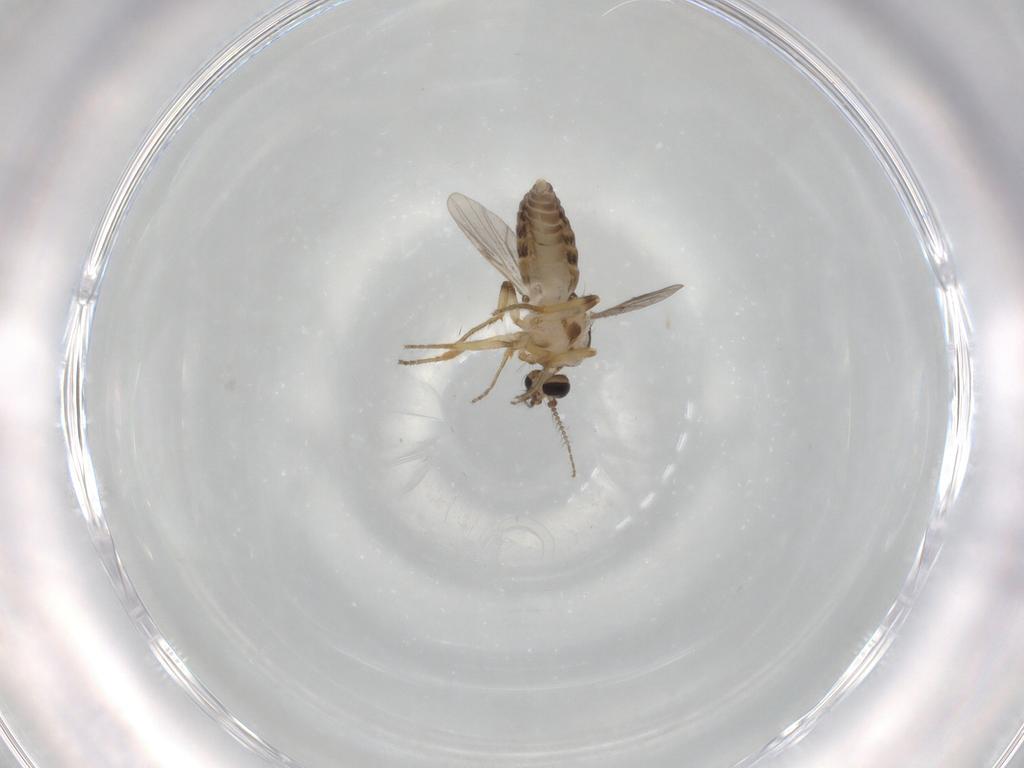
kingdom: Animalia
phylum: Arthropoda
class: Insecta
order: Diptera
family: Ceratopogonidae
